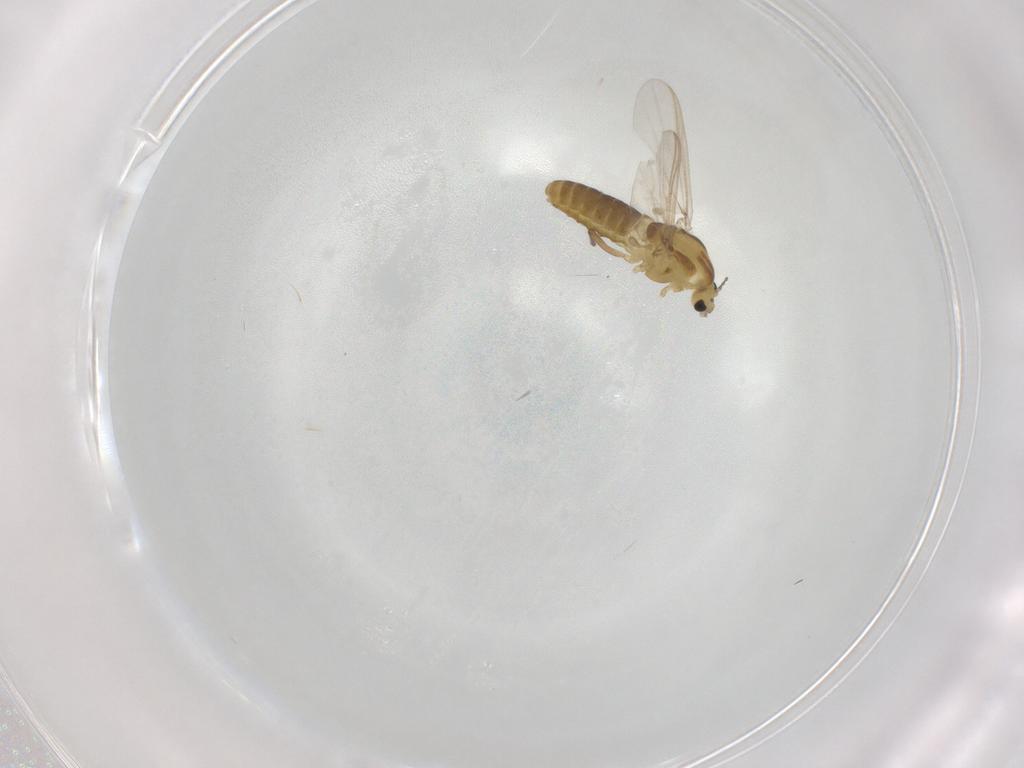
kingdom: Animalia
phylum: Arthropoda
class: Insecta
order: Diptera
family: Chironomidae
